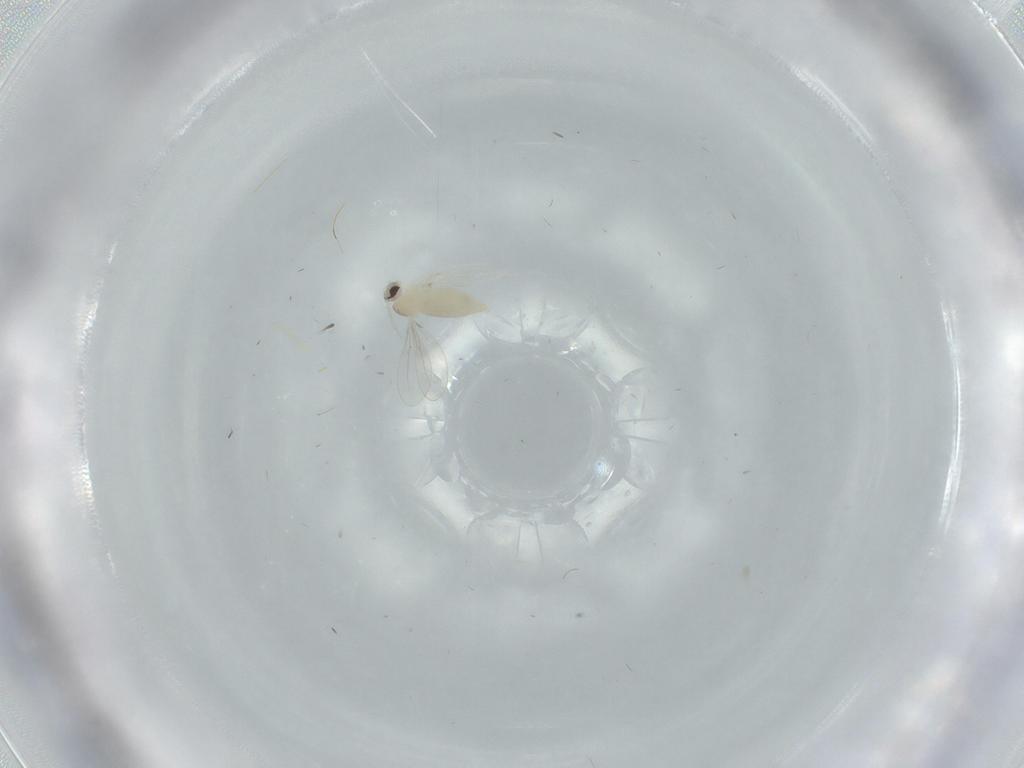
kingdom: Animalia
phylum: Arthropoda
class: Insecta
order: Diptera
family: Cecidomyiidae
